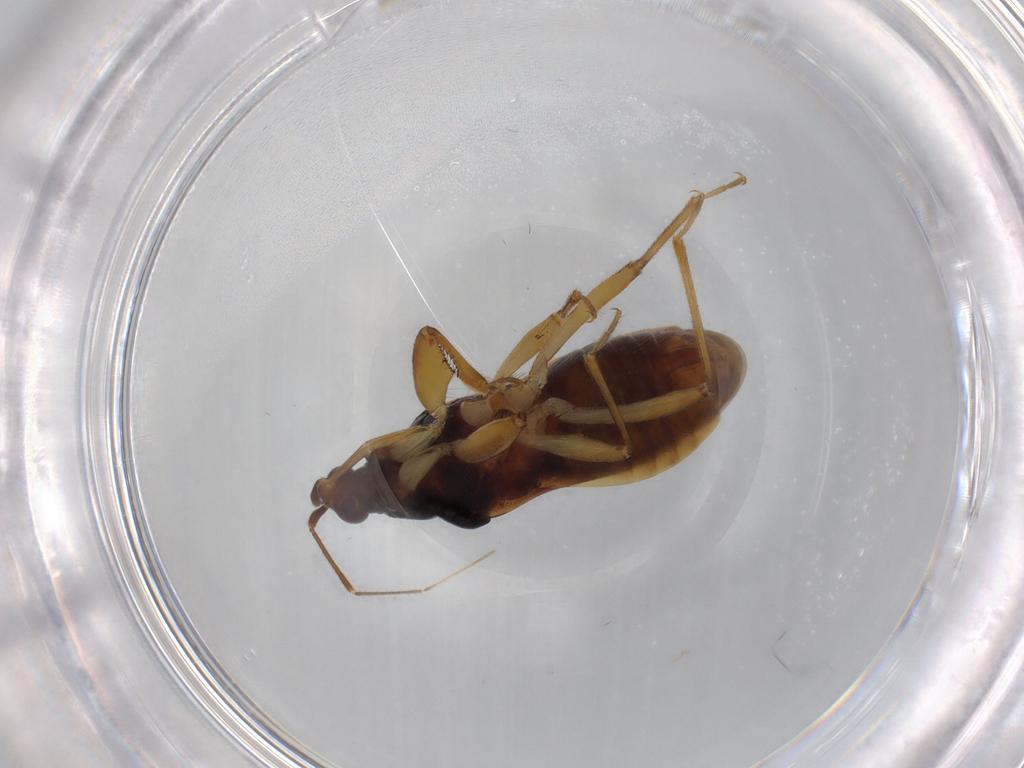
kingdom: Animalia
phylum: Arthropoda
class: Insecta
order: Hemiptera
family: Nabidae
